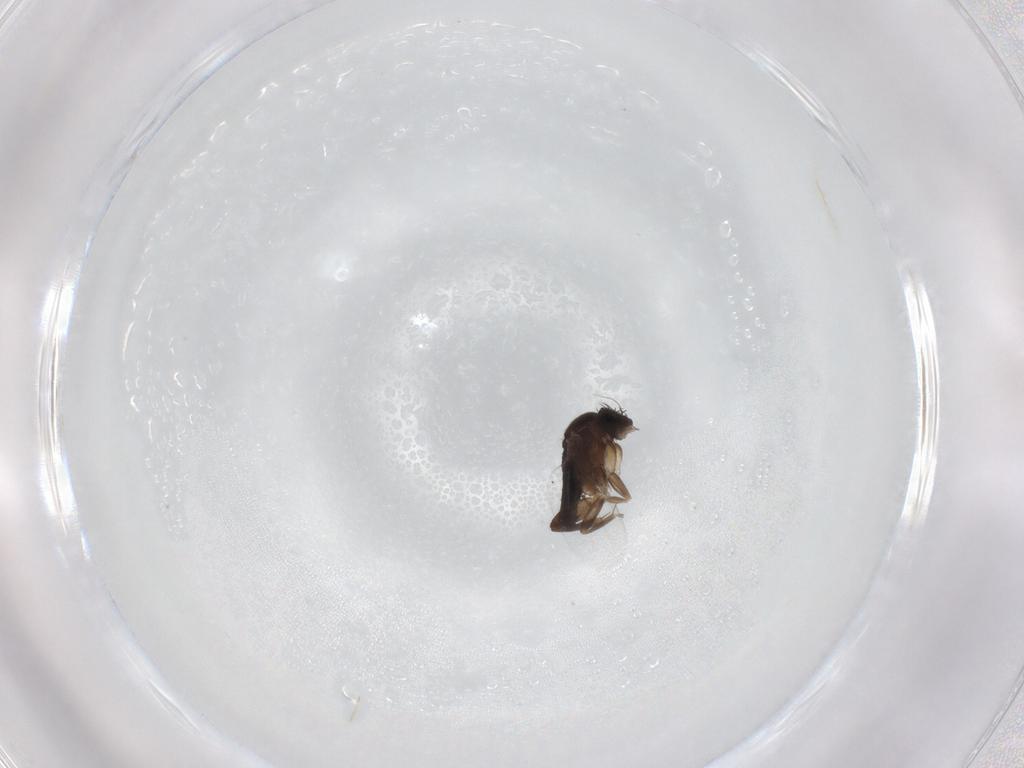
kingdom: Animalia
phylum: Arthropoda
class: Insecta
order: Diptera
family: Phoridae
